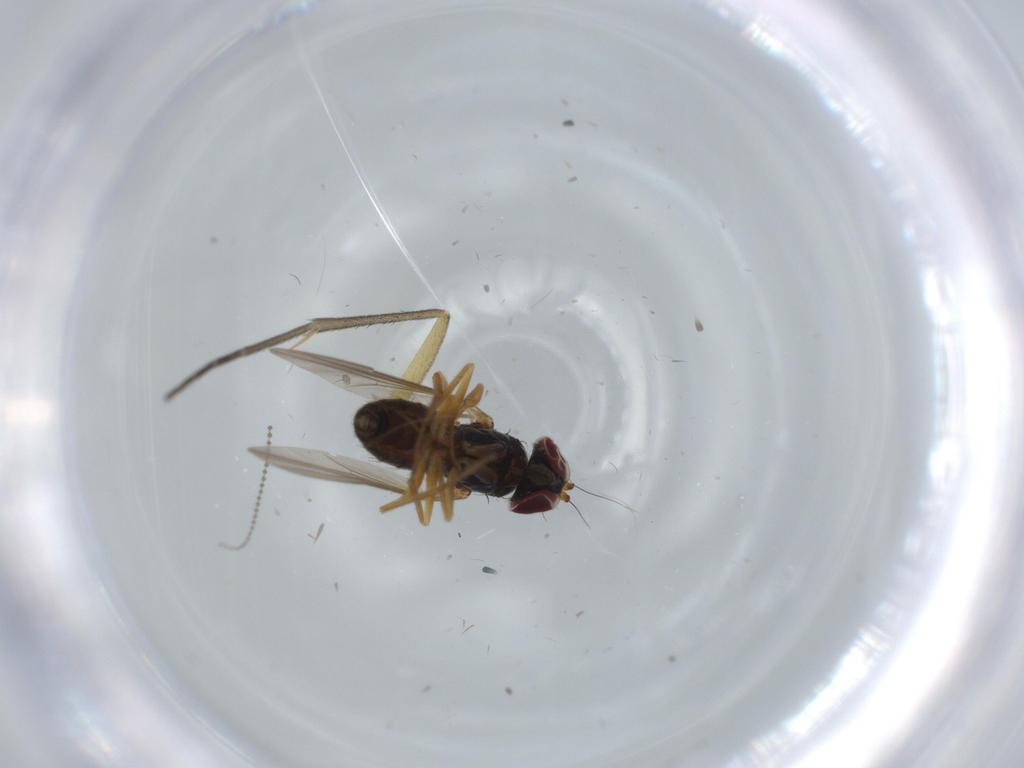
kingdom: Animalia
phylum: Arthropoda
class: Insecta
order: Diptera
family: Dolichopodidae
